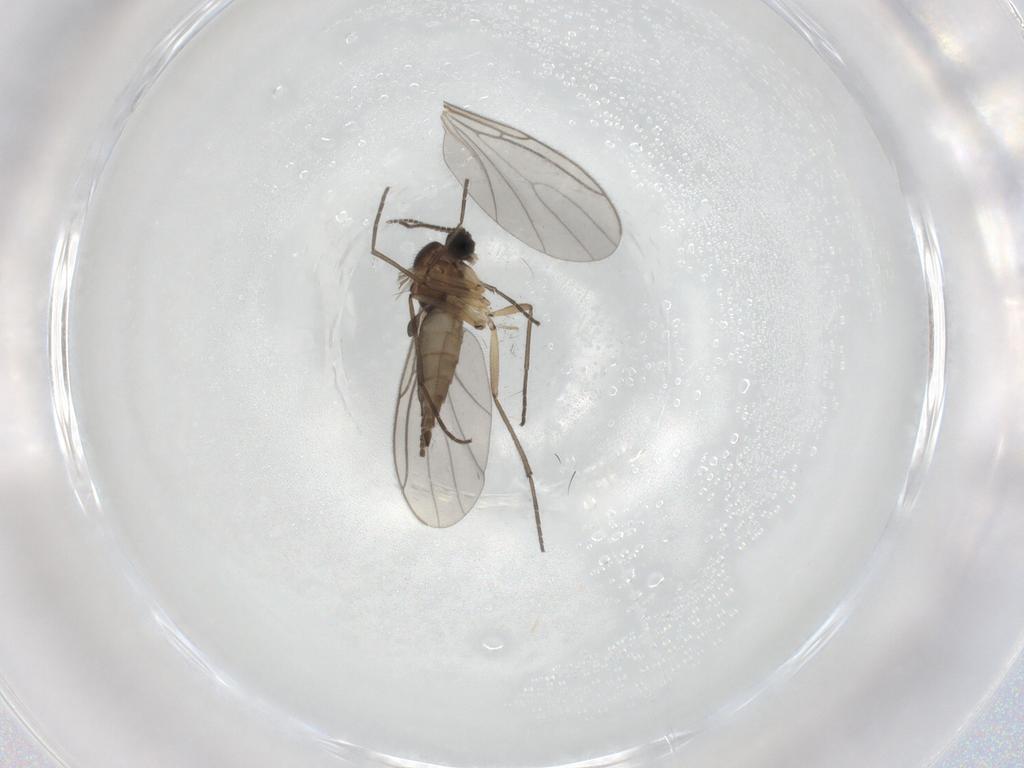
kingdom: Animalia
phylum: Arthropoda
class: Insecta
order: Diptera
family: Sciaridae
